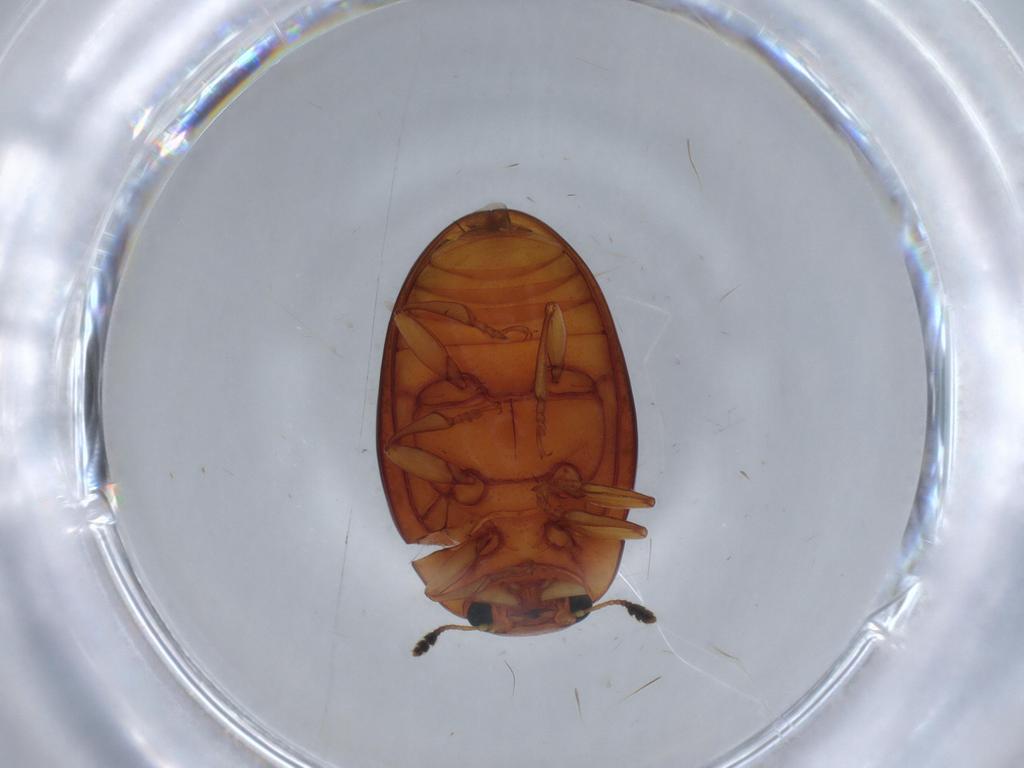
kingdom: Animalia
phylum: Arthropoda
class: Insecta
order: Coleoptera
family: Erotylidae
